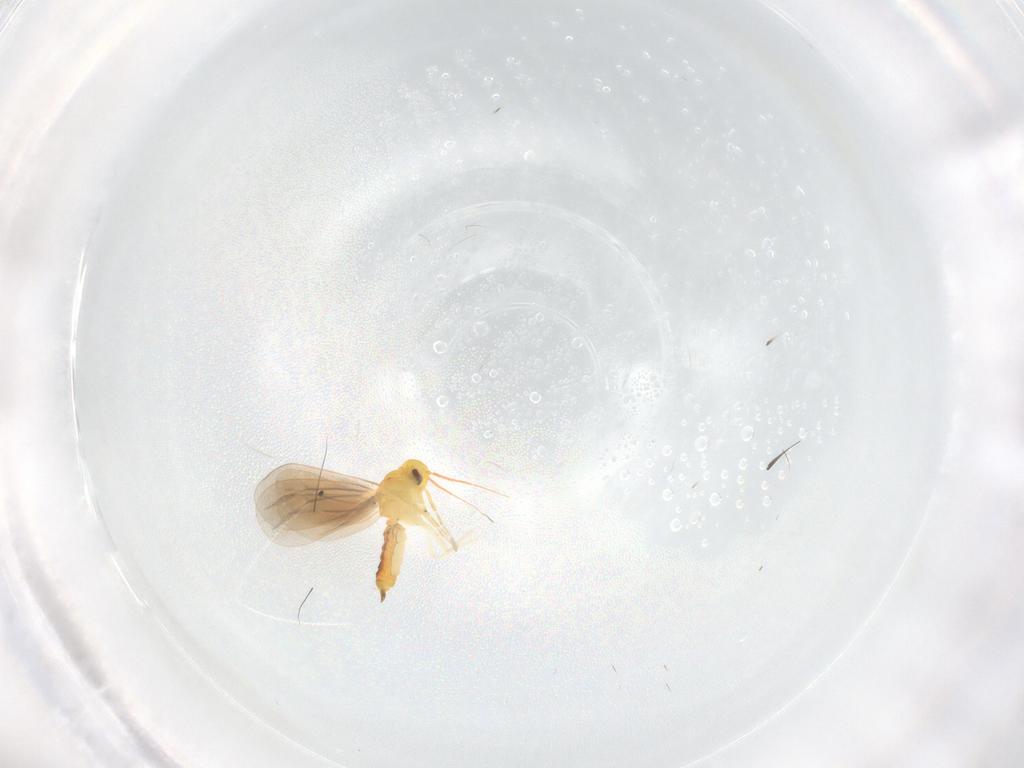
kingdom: Animalia
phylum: Arthropoda
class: Insecta
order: Hemiptera
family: Aleyrodidae
